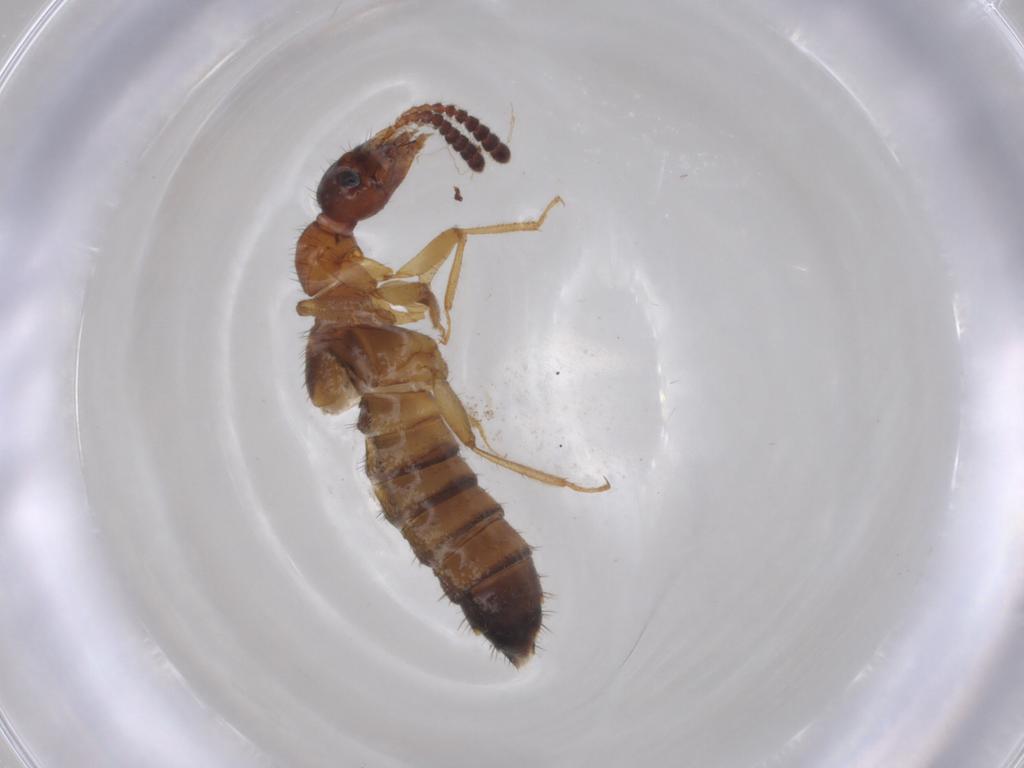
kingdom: Animalia
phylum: Arthropoda
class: Insecta
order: Coleoptera
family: Staphylinidae
